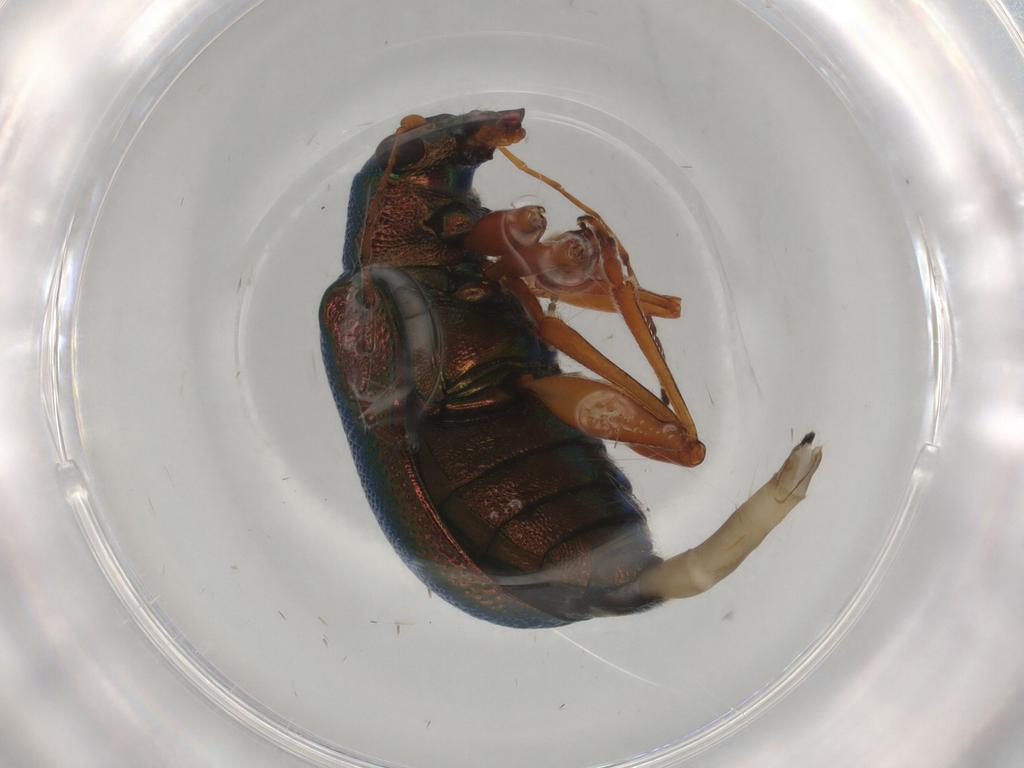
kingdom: Animalia
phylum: Arthropoda
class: Insecta
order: Coleoptera
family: Chrysomelidae
